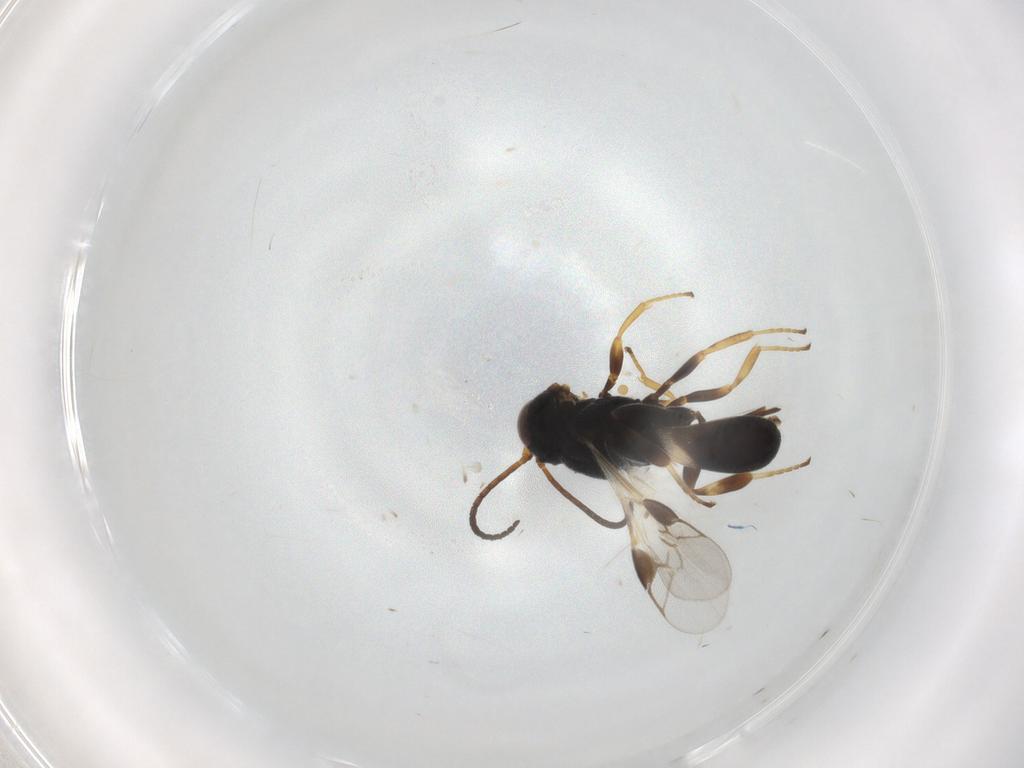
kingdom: Animalia
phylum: Arthropoda
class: Insecta
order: Hymenoptera
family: Braconidae
